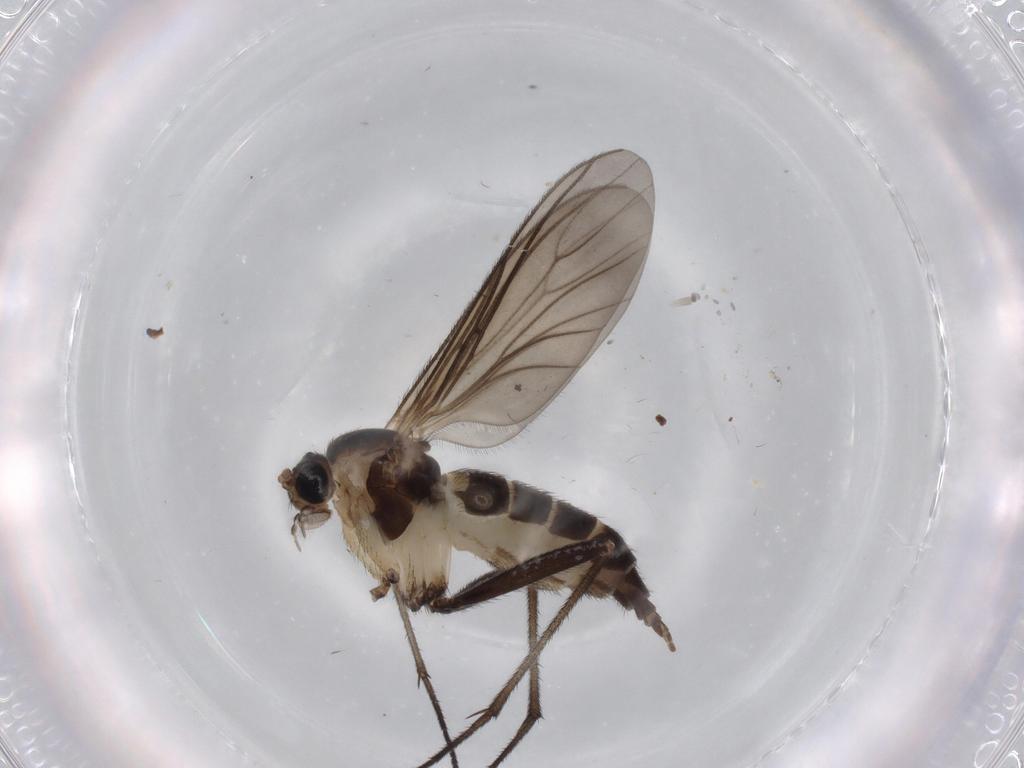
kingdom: Animalia
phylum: Arthropoda
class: Insecta
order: Diptera
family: Sciaridae
